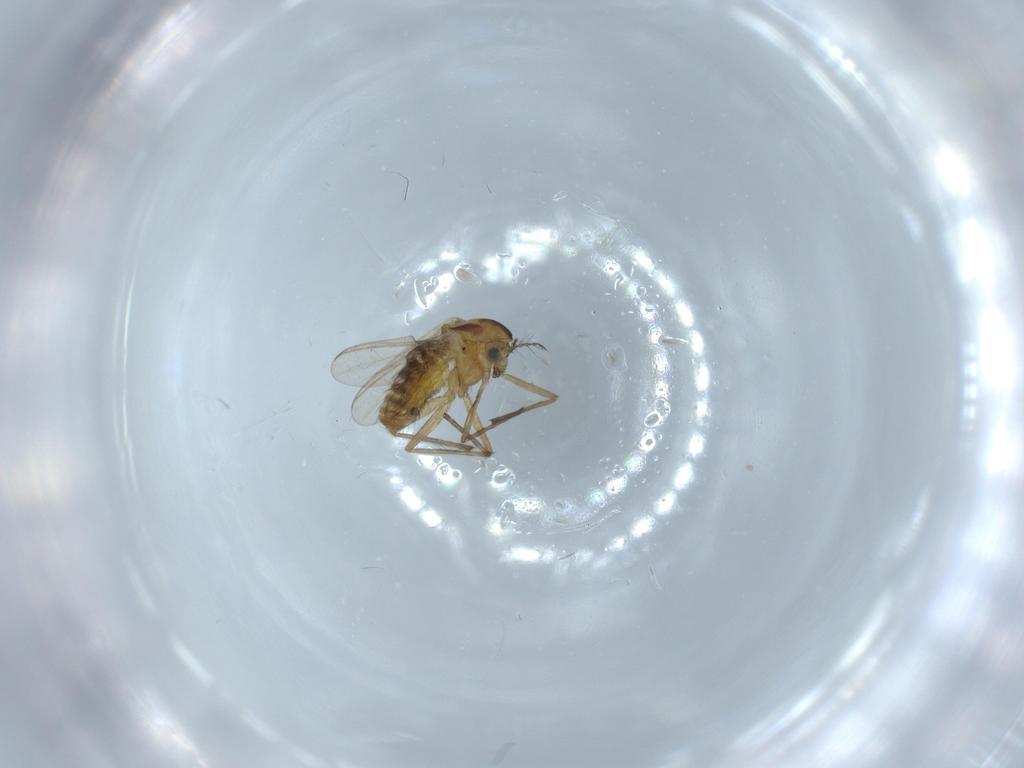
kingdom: Animalia
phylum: Arthropoda
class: Insecta
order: Diptera
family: Chironomidae
